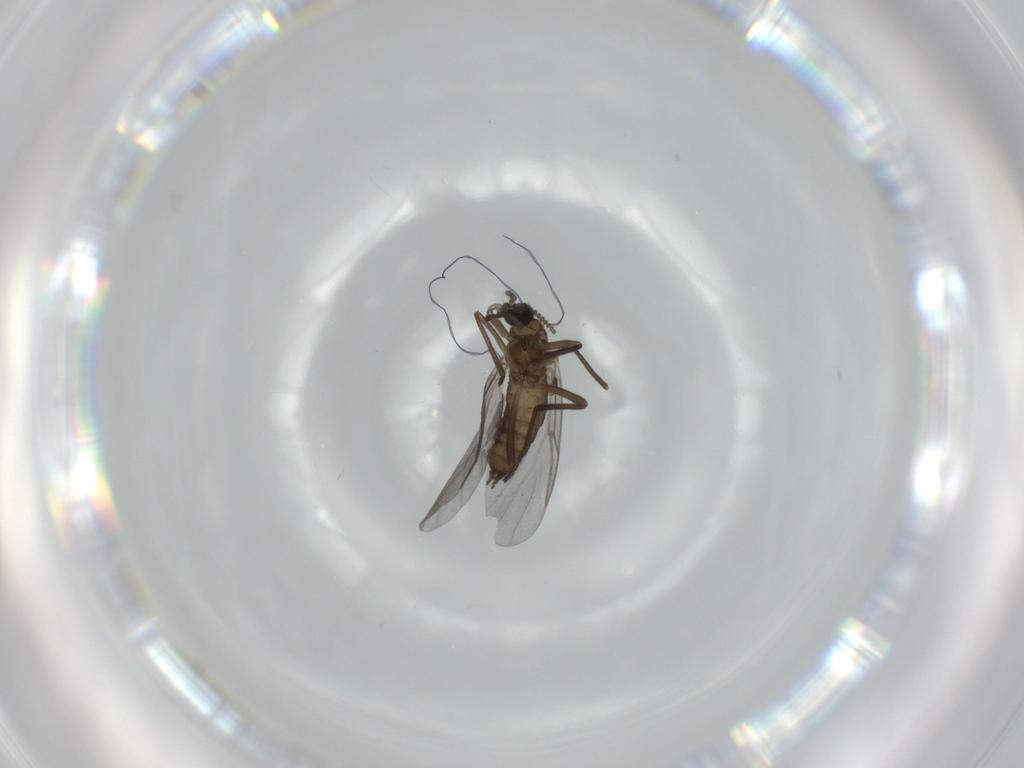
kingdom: Animalia
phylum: Arthropoda
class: Insecta
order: Diptera
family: Cecidomyiidae
